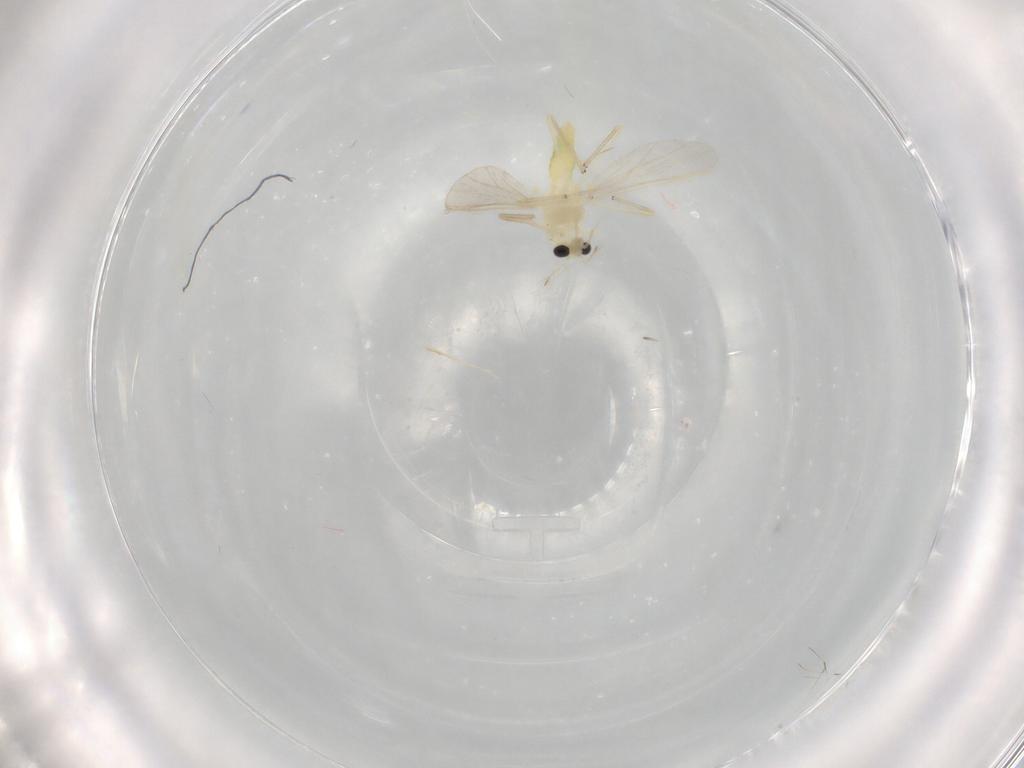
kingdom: Animalia
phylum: Arthropoda
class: Insecta
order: Diptera
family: Chironomidae
